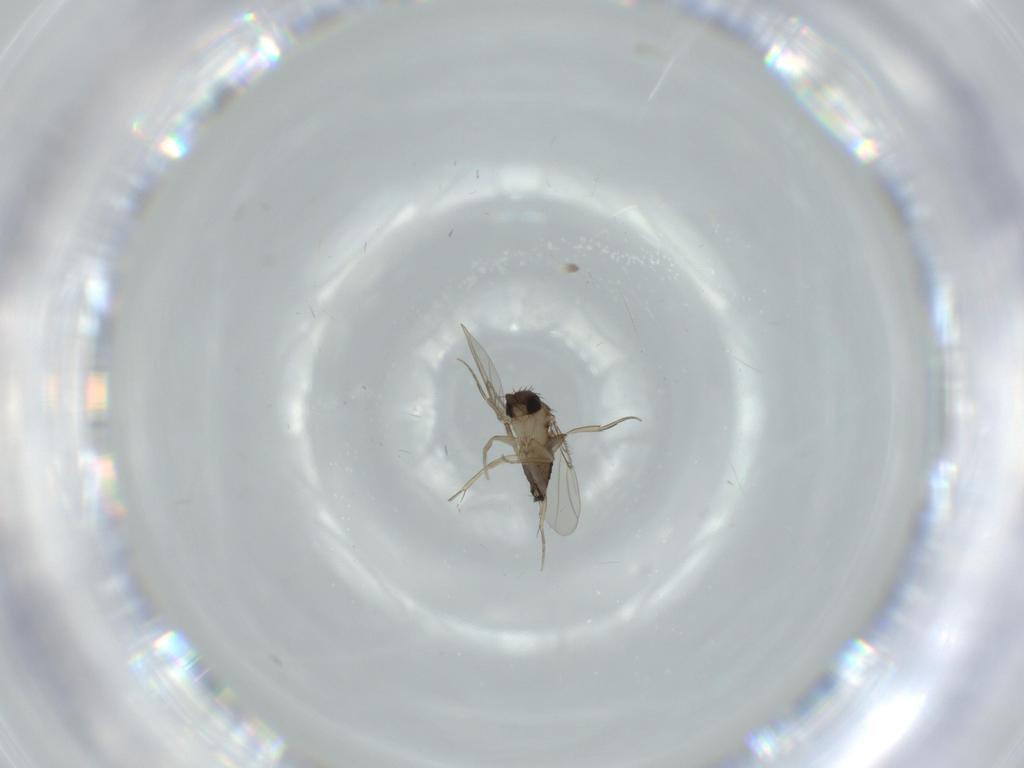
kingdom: Animalia
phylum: Arthropoda
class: Insecta
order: Diptera
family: Phoridae
